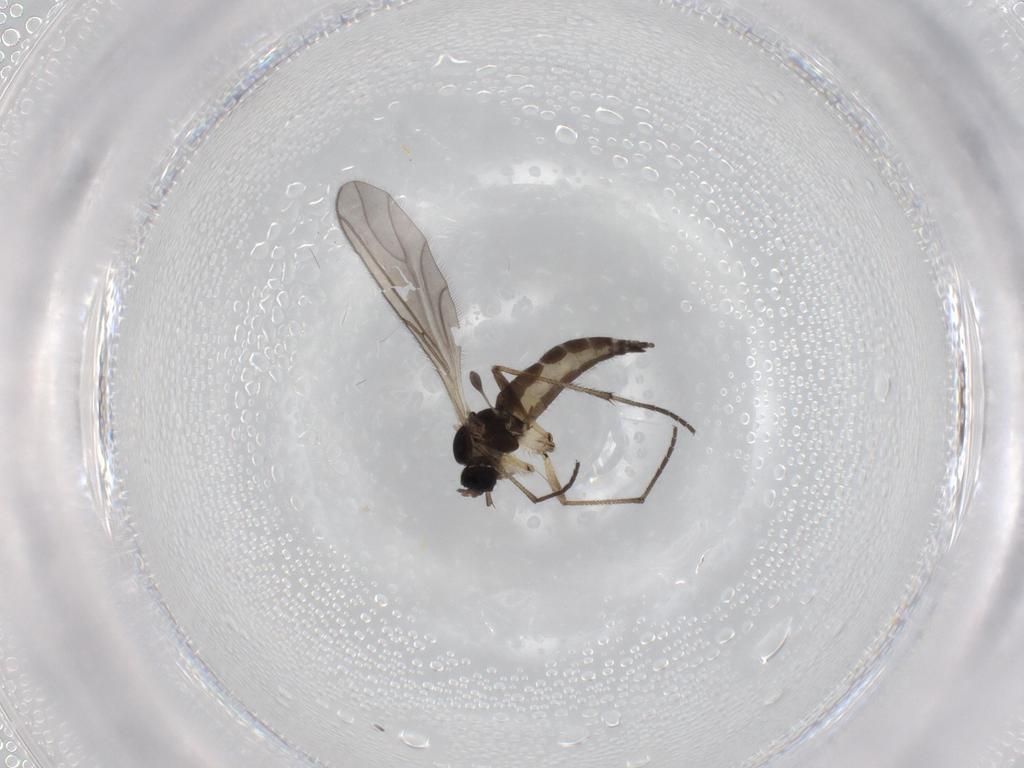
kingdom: Animalia
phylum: Arthropoda
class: Insecta
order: Diptera
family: Sciaridae
